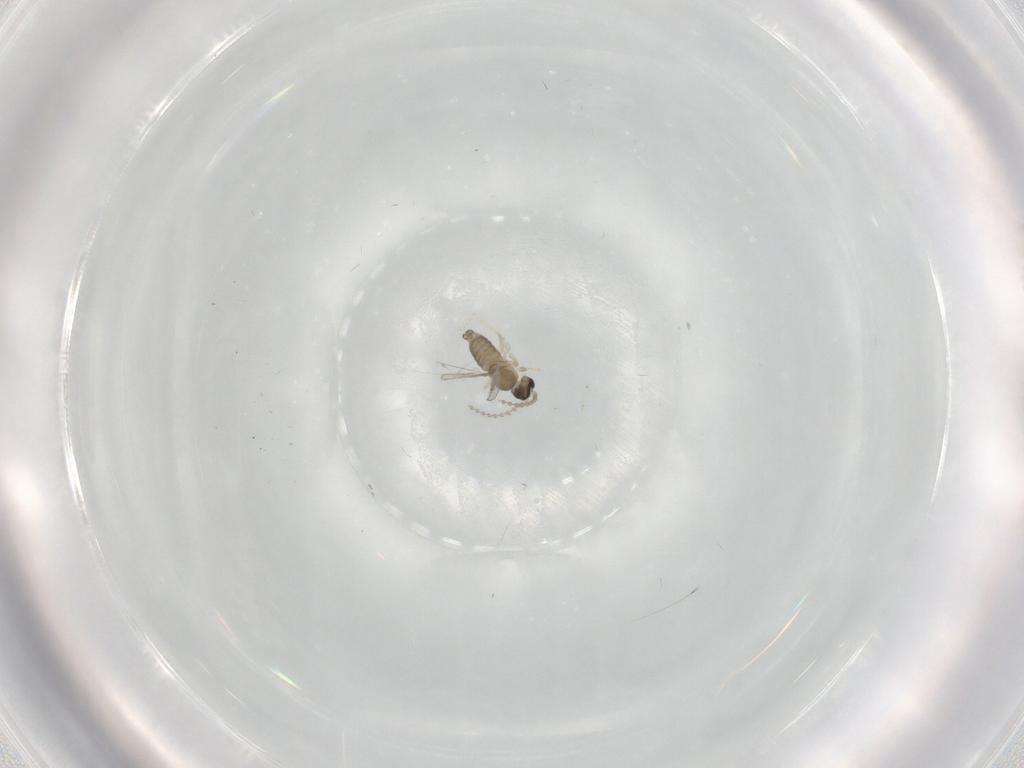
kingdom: Animalia
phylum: Arthropoda
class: Insecta
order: Diptera
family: Cecidomyiidae
